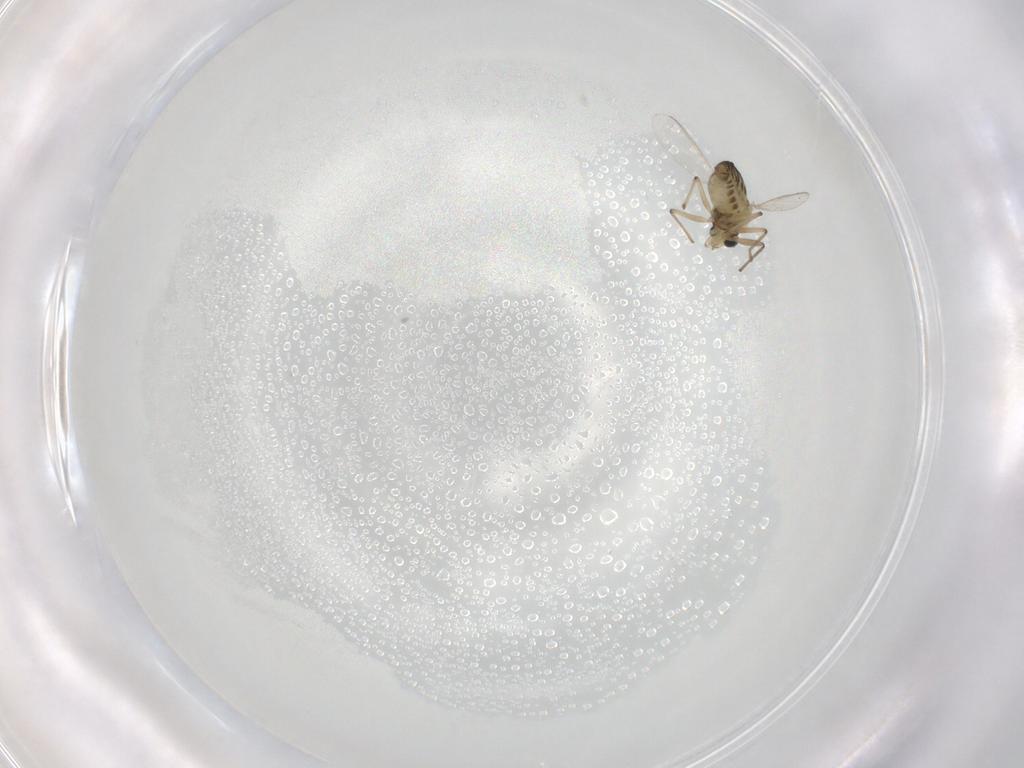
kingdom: Animalia
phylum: Arthropoda
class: Insecta
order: Diptera
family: Chironomidae
